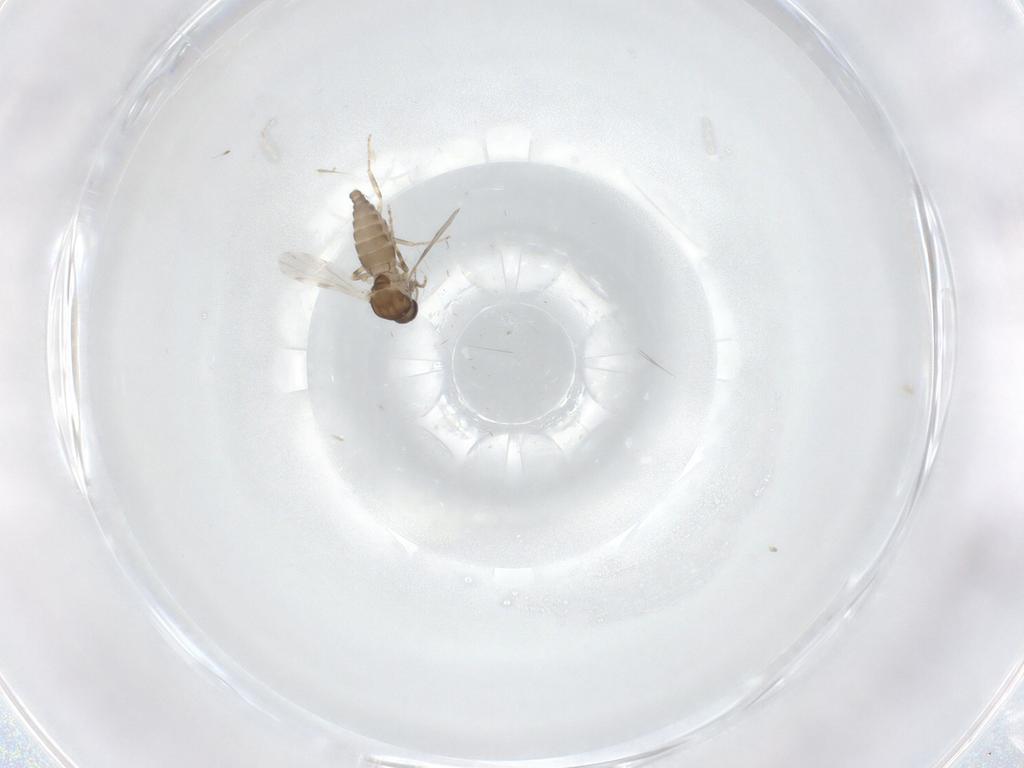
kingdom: Animalia
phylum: Arthropoda
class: Insecta
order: Diptera
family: Ceratopogonidae
